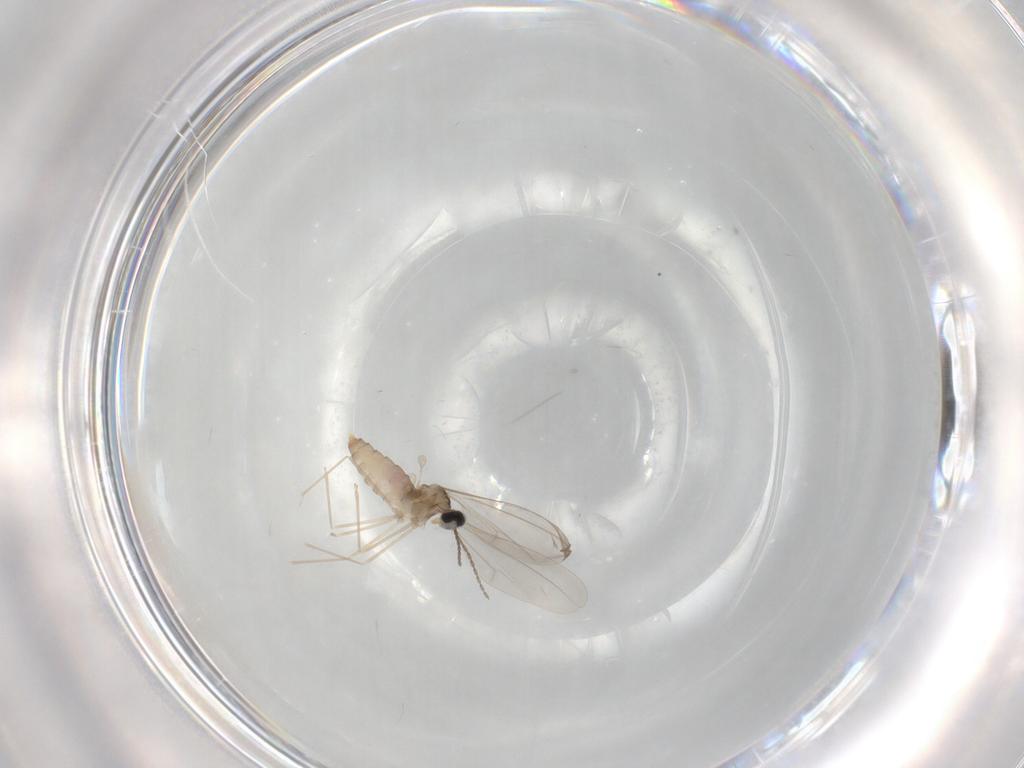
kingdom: Animalia
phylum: Arthropoda
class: Insecta
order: Diptera
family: Cecidomyiidae
